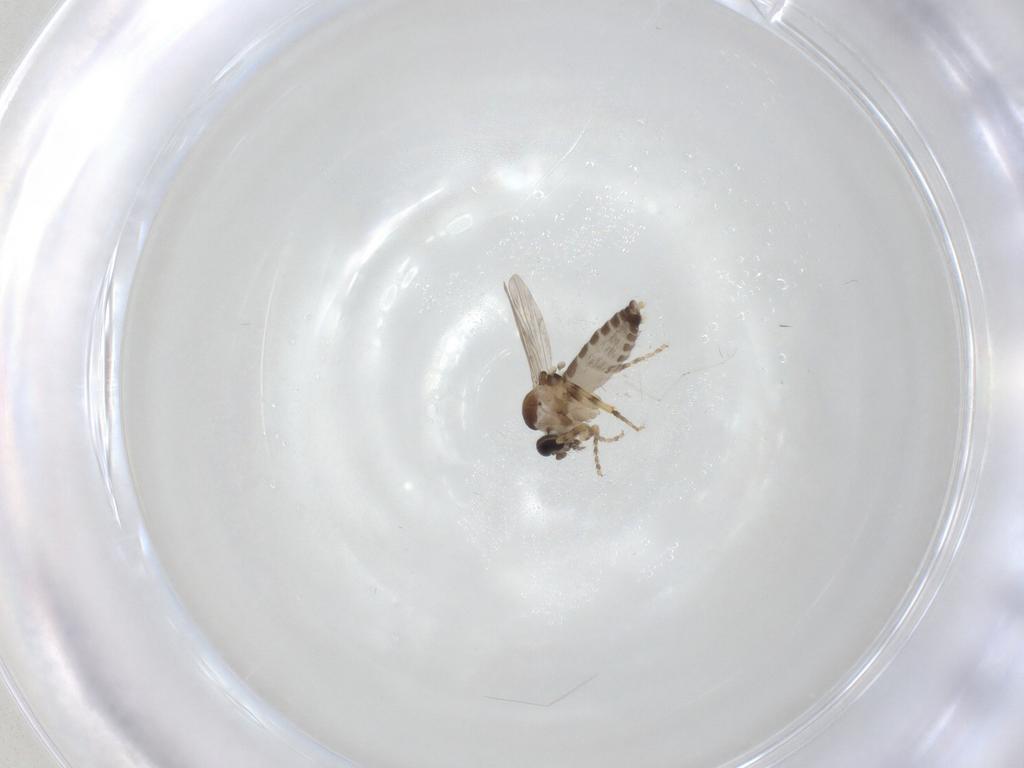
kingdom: Animalia
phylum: Arthropoda
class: Insecta
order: Diptera
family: Ceratopogonidae
